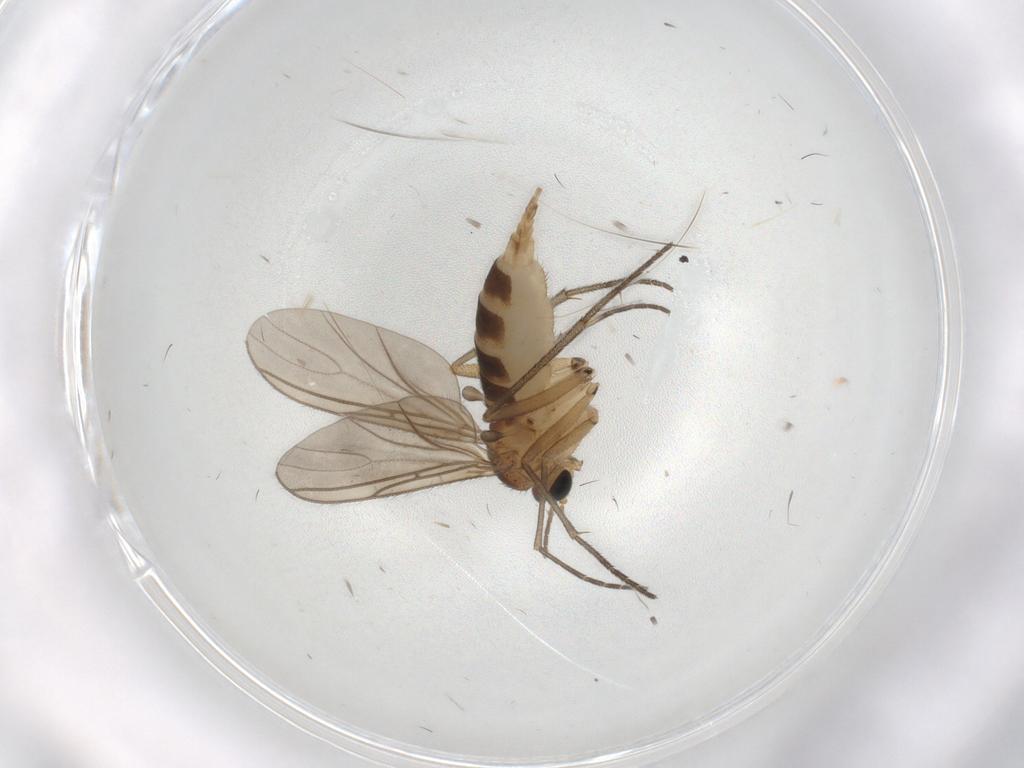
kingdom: Animalia
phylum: Arthropoda
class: Insecta
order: Diptera
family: Sciaridae
